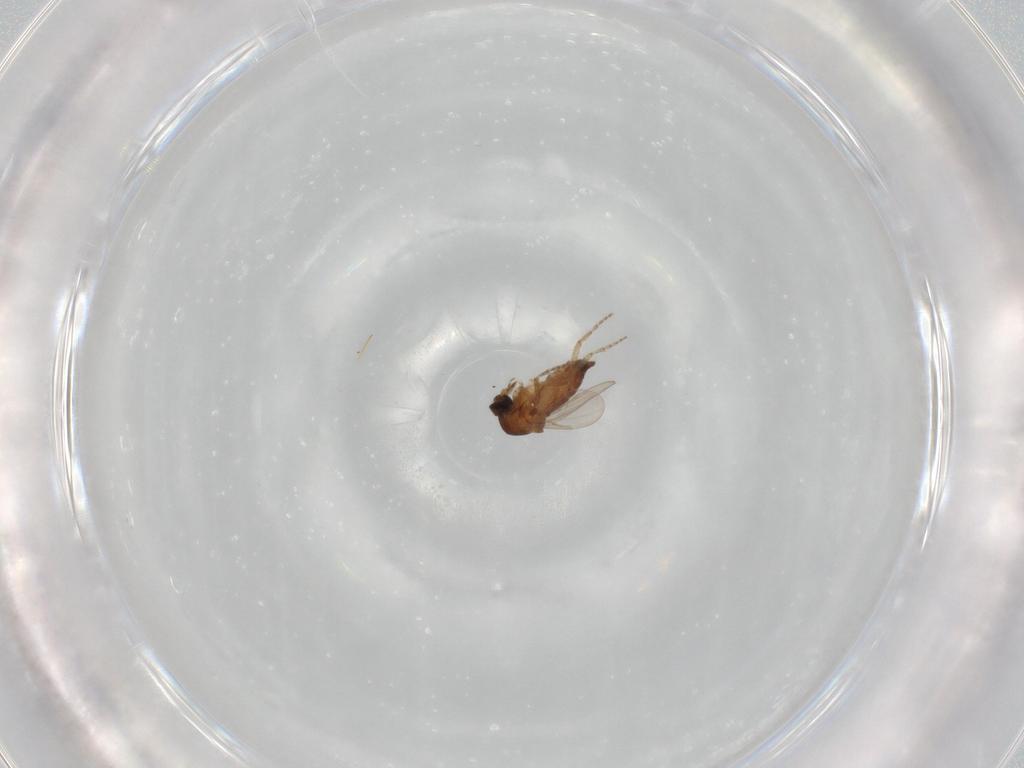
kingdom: Animalia
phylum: Arthropoda
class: Insecta
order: Diptera
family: Ceratopogonidae
